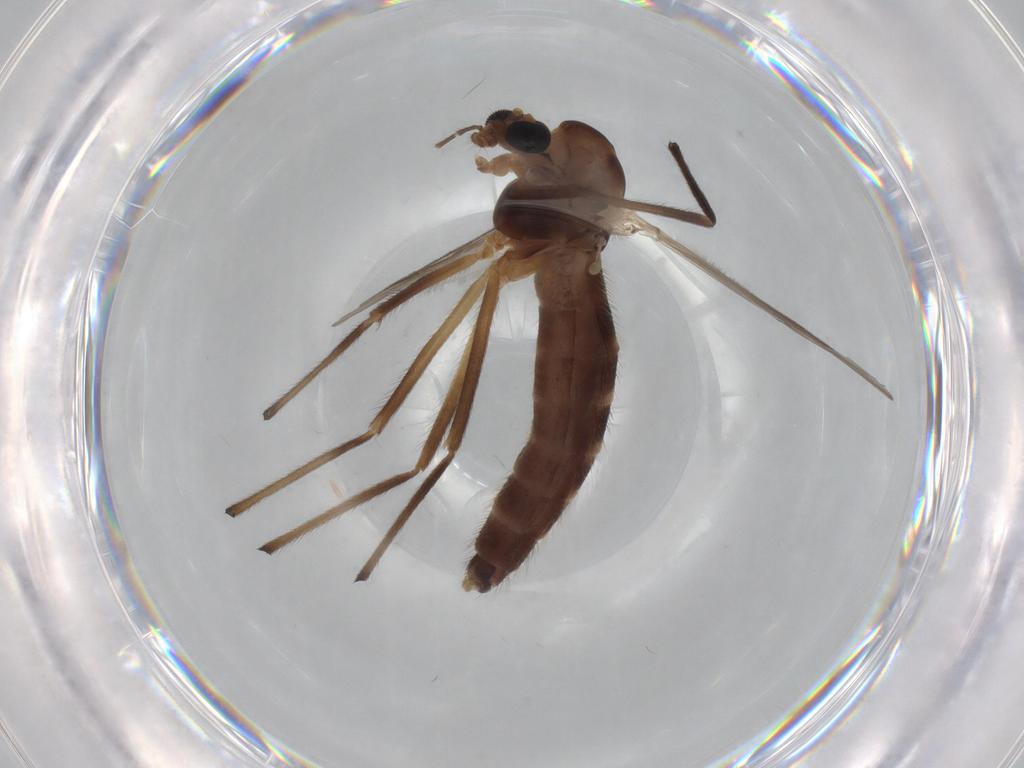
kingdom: Animalia
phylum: Arthropoda
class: Insecta
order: Diptera
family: Chironomidae
